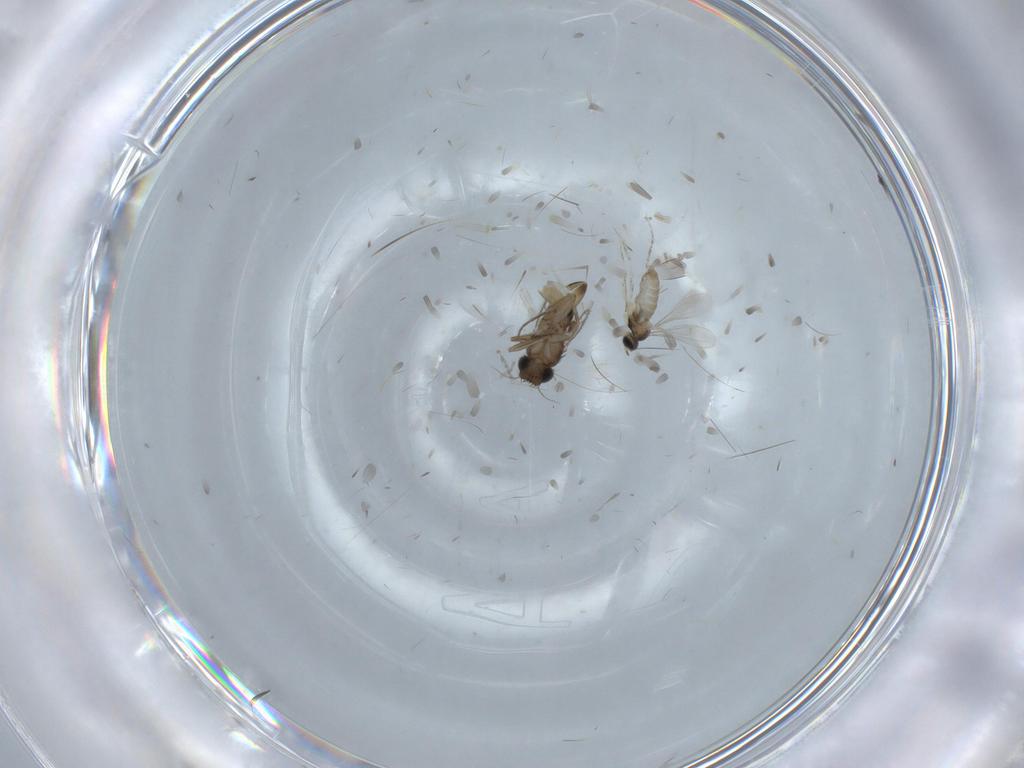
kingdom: Animalia
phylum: Arthropoda
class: Insecta
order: Diptera
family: Cecidomyiidae
